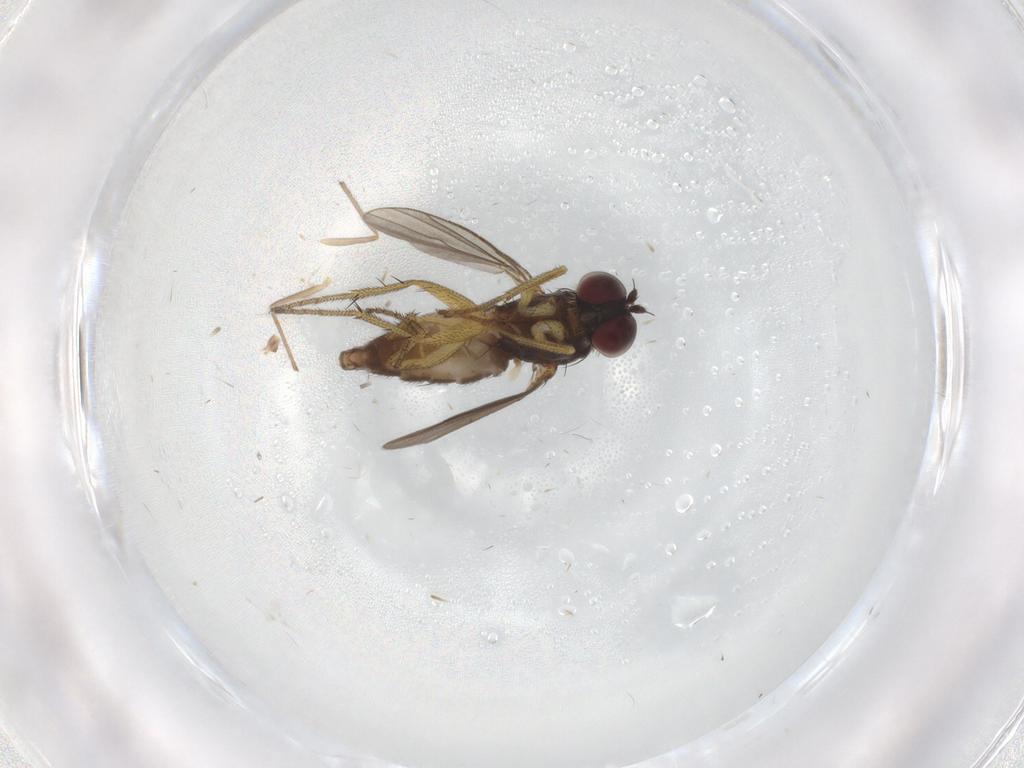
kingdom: Animalia
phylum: Arthropoda
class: Insecta
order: Diptera
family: Chironomidae
